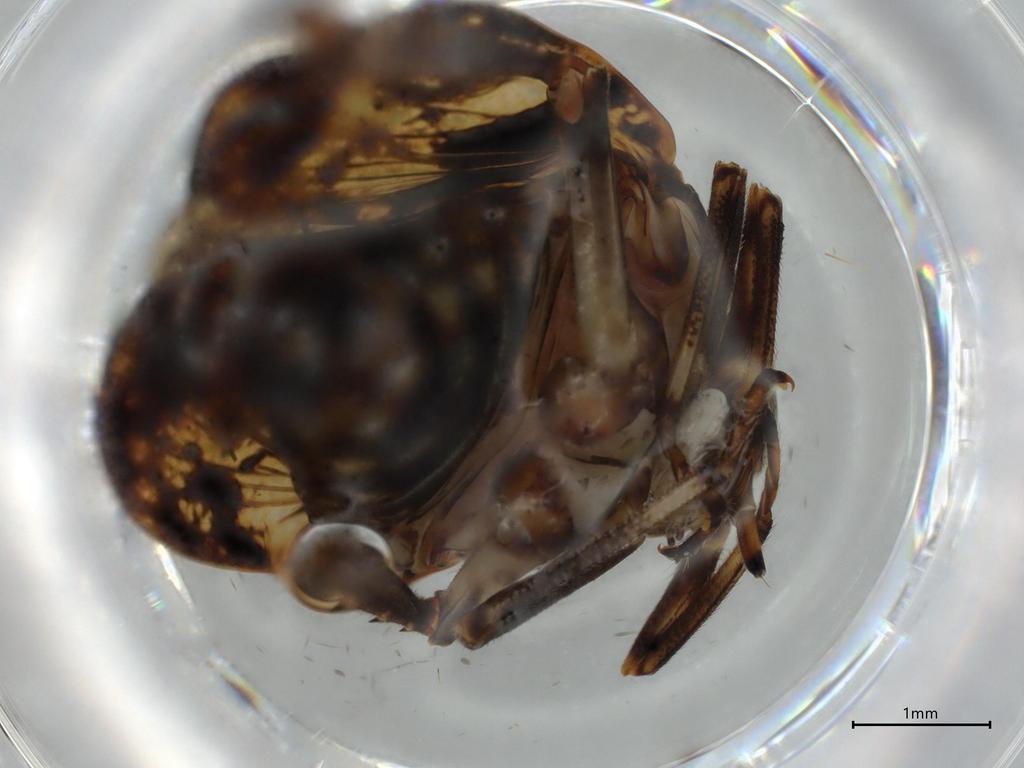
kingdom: Animalia
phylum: Arthropoda
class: Insecta
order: Hemiptera
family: Issidae
